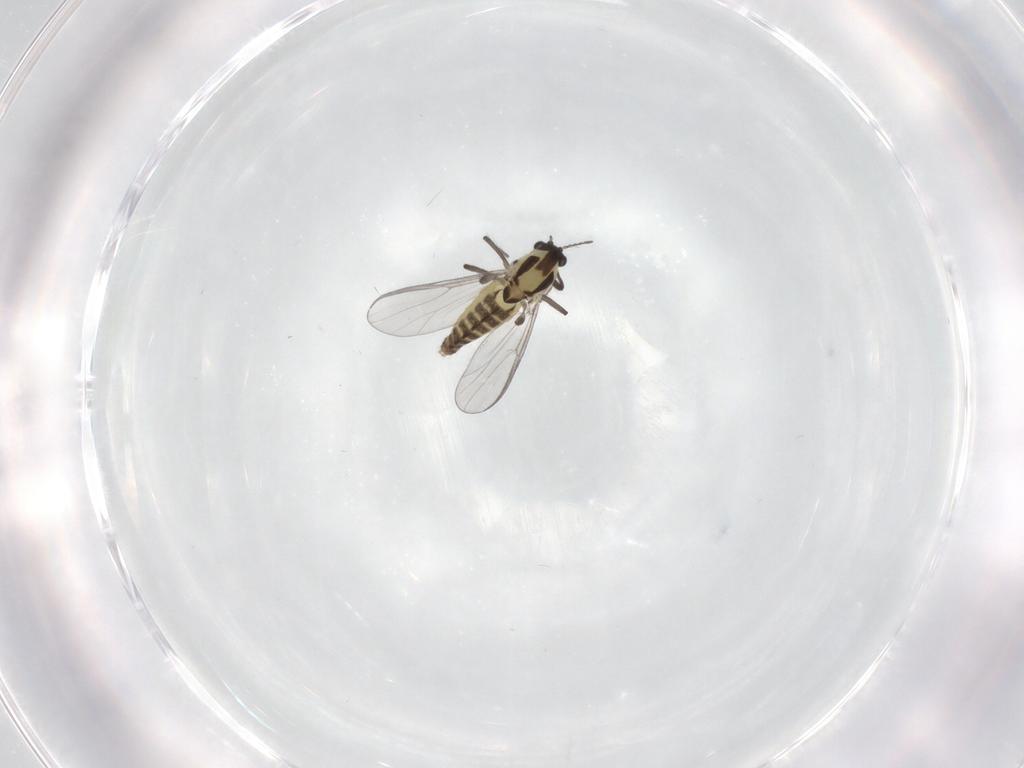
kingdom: Animalia
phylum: Arthropoda
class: Insecta
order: Diptera
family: Chironomidae
